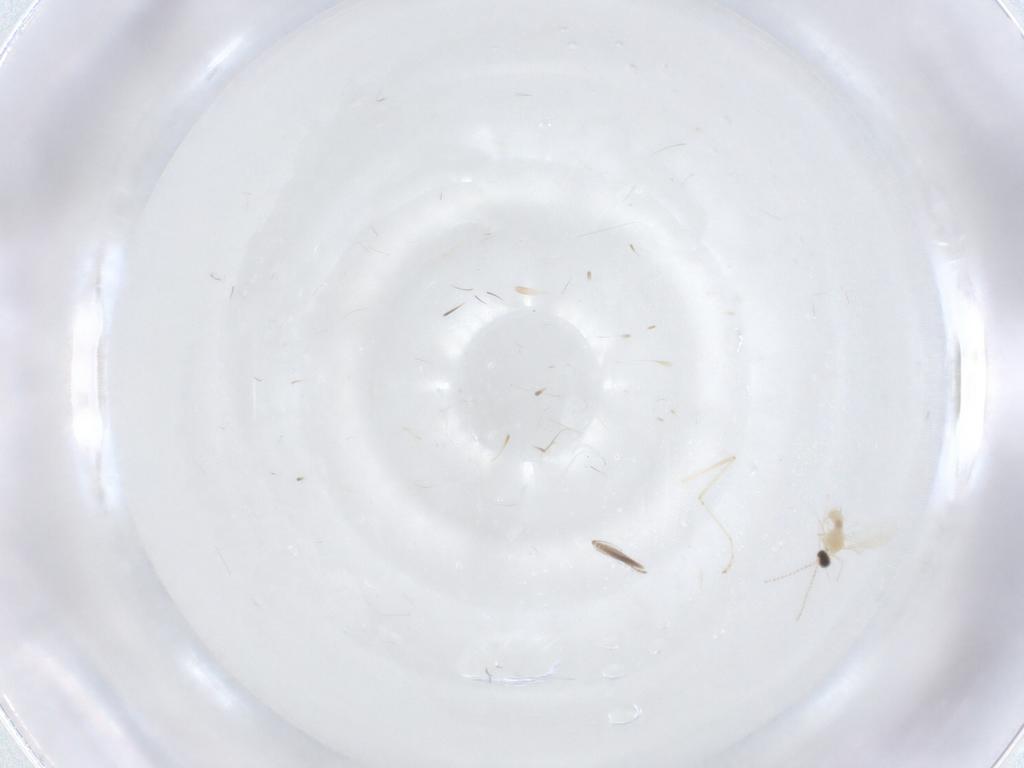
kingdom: Animalia
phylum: Arthropoda
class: Insecta
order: Diptera
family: Cecidomyiidae
